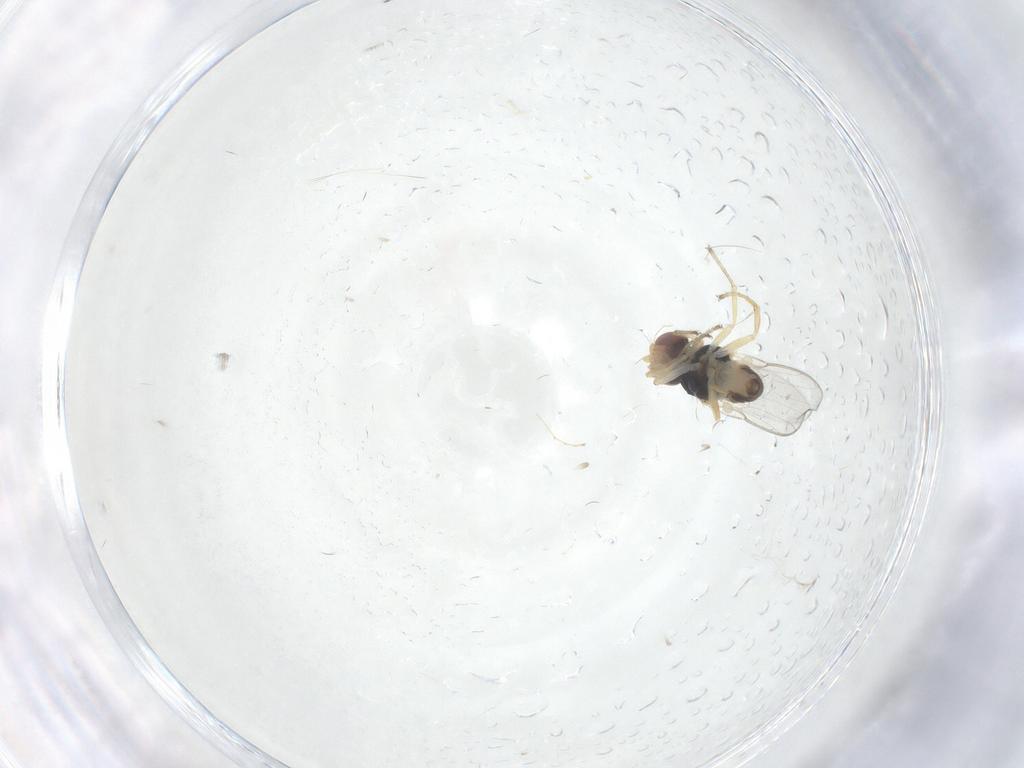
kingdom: Animalia
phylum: Arthropoda
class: Insecta
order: Diptera
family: Chloropidae
